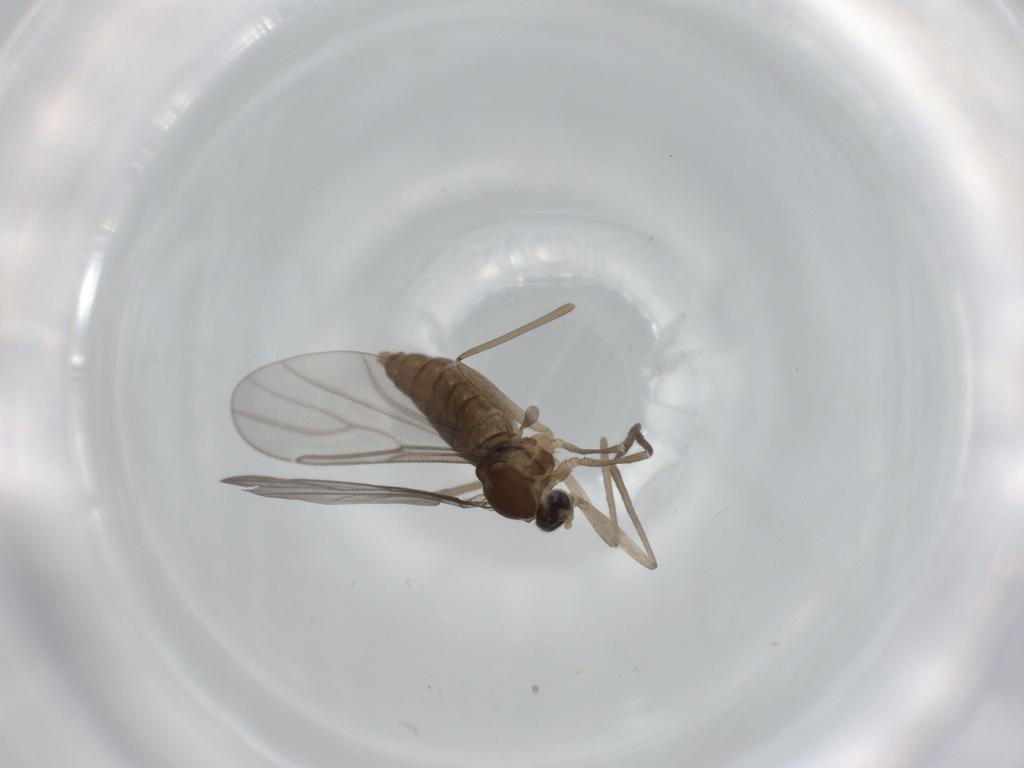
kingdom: Animalia
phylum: Arthropoda
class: Insecta
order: Diptera
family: Cecidomyiidae
